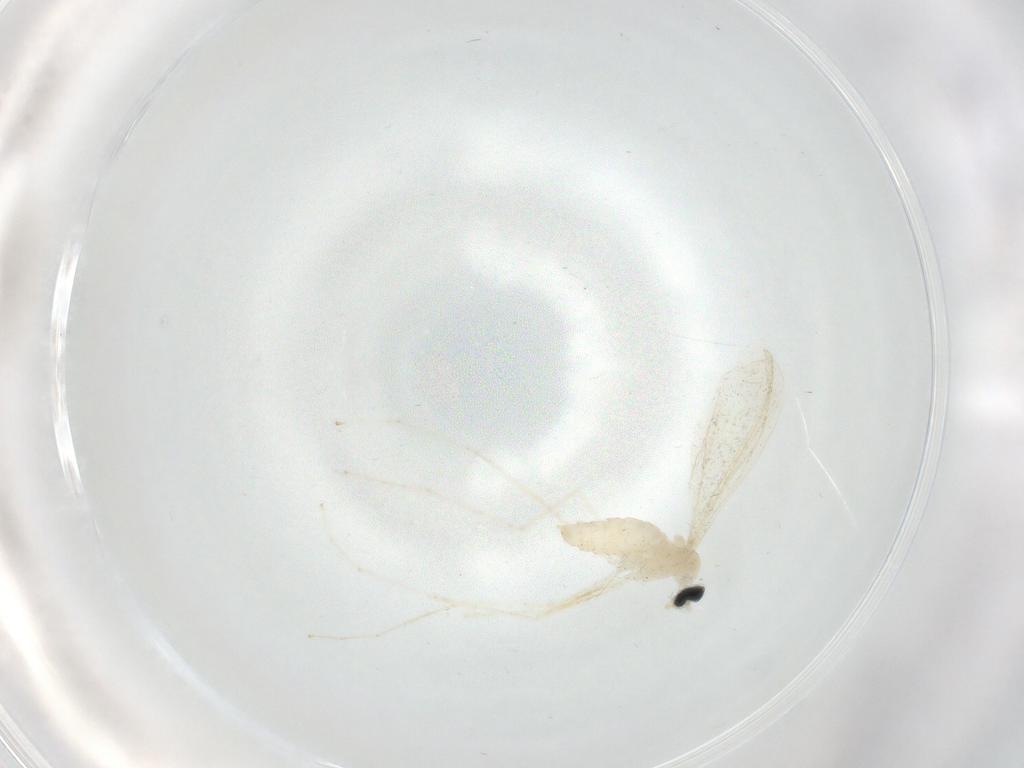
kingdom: Animalia
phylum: Arthropoda
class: Insecta
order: Diptera
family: Cecidomyiidae
